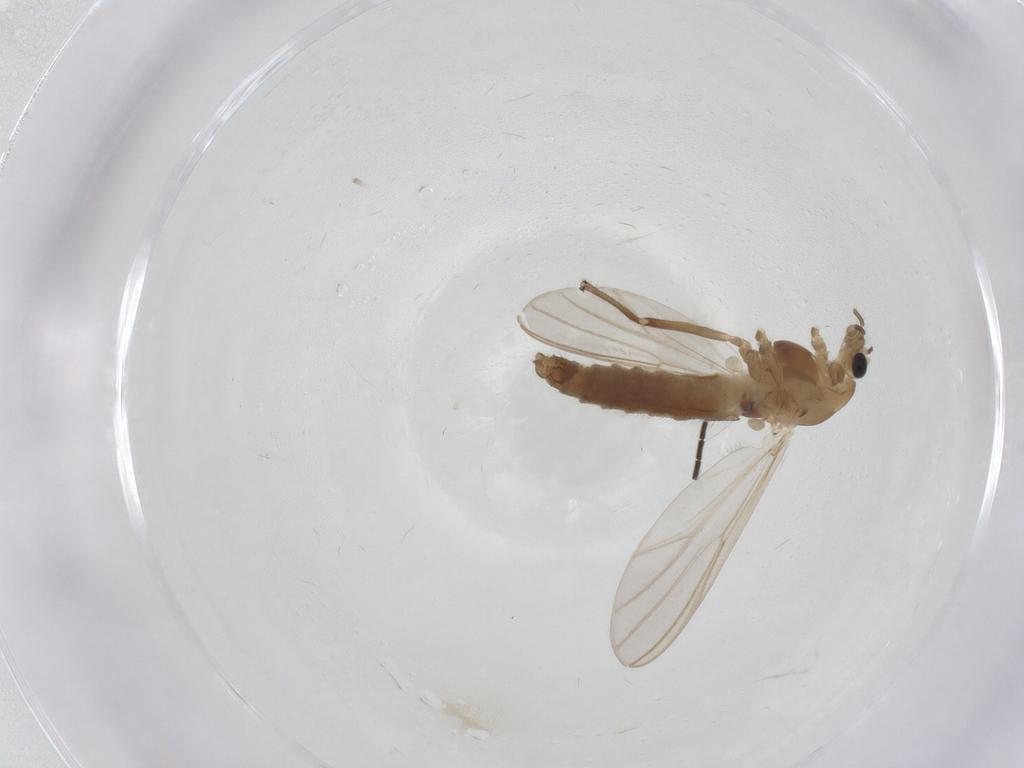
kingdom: Animalia
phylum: Arthropoda
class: Insecta
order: Diptera
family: Chironomidae
